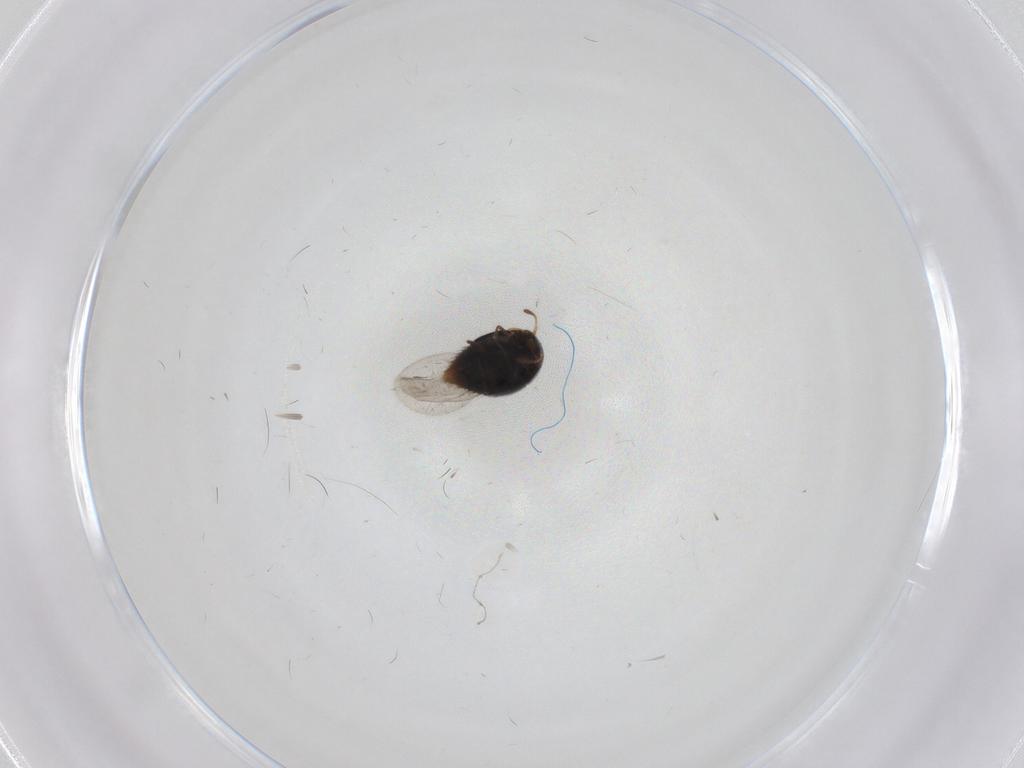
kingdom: Animalia
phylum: Arthropoda
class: Insecta
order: Coleoptera
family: Staphylinidae
